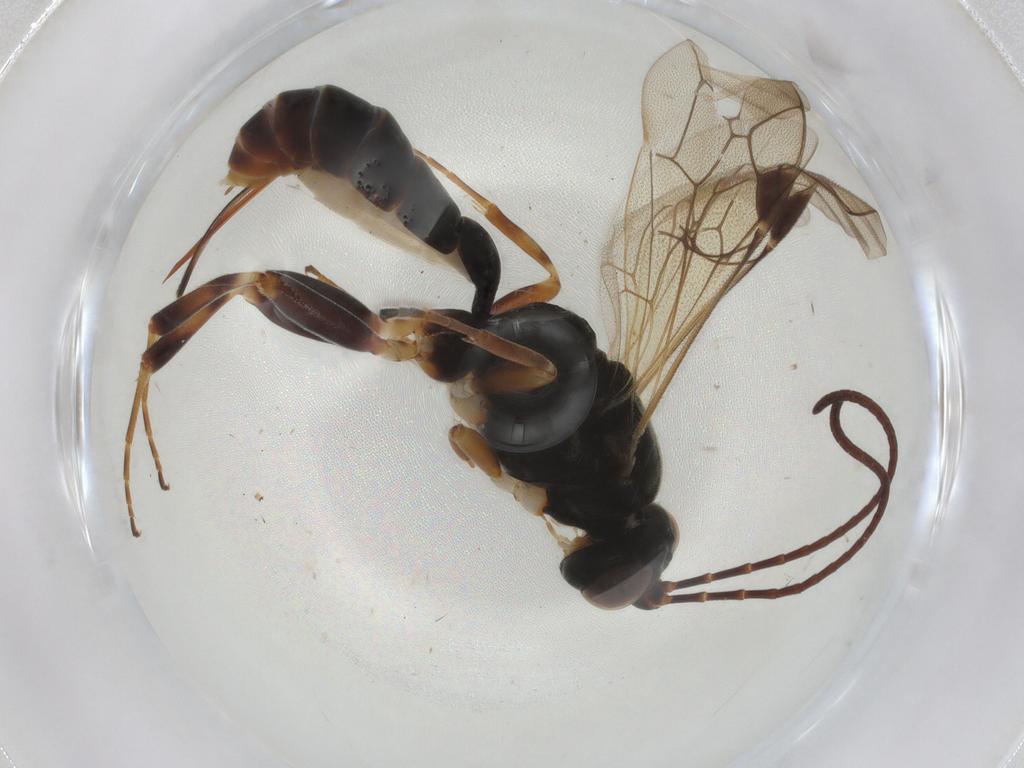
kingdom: Animalia
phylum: Arthropoda
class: Insecta
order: Hymenoptera
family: Ichneumonidae
